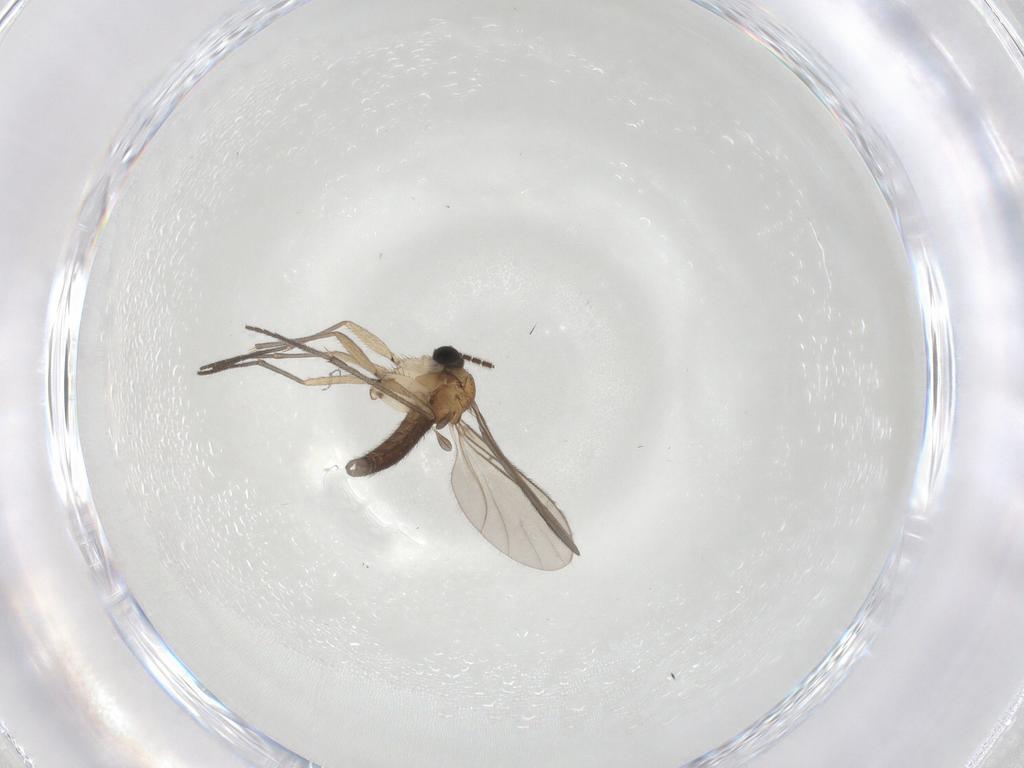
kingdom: Animalia
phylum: Arthropoda
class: Insecta
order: Diptera
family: Sciaridae
